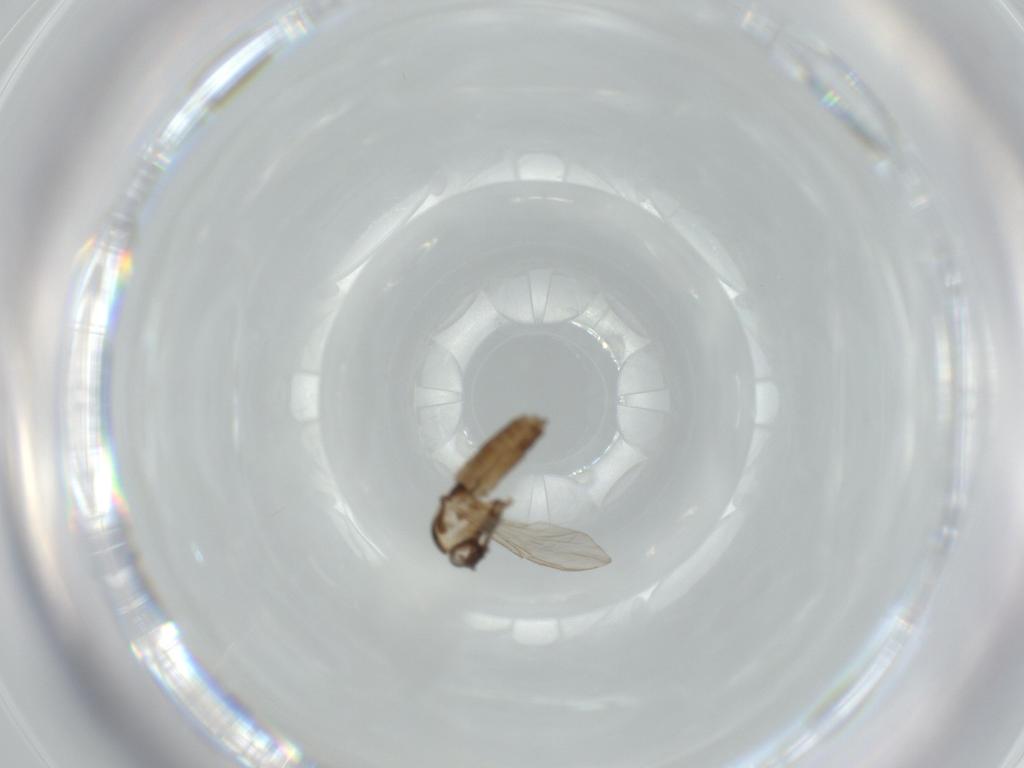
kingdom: Animalia
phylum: Arthropoda
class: Insecta
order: Diptera
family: Chironomidae
